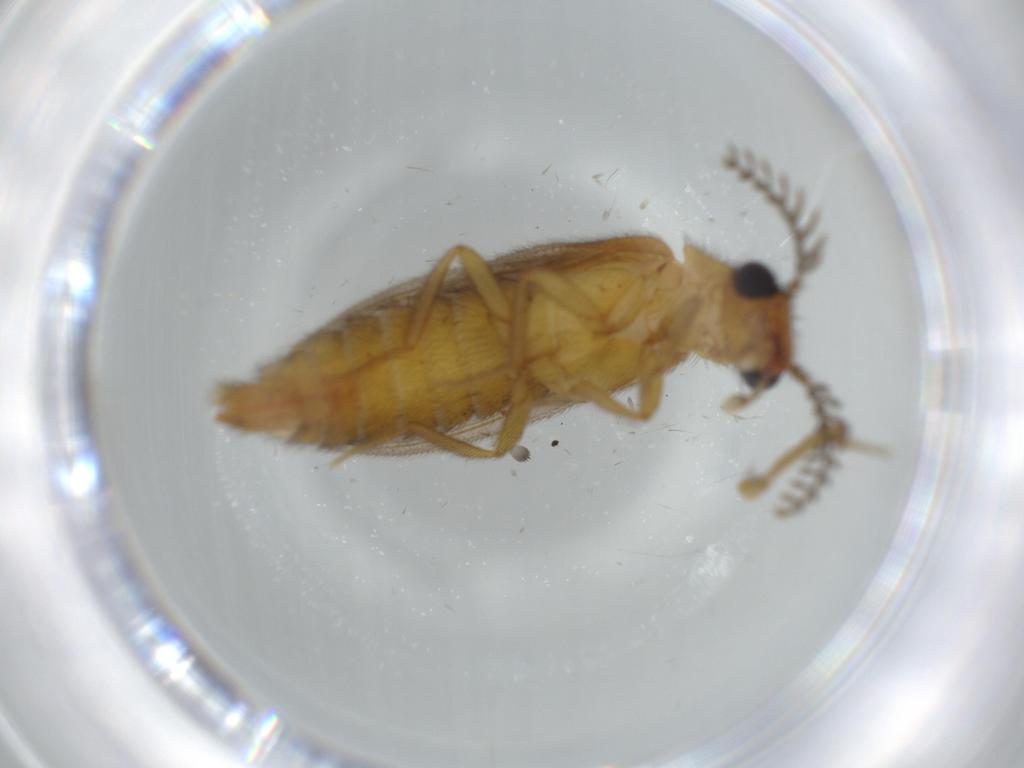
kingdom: Animalia
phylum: Arthropoda
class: Insecta
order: Coleoptera
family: Phengodidae
